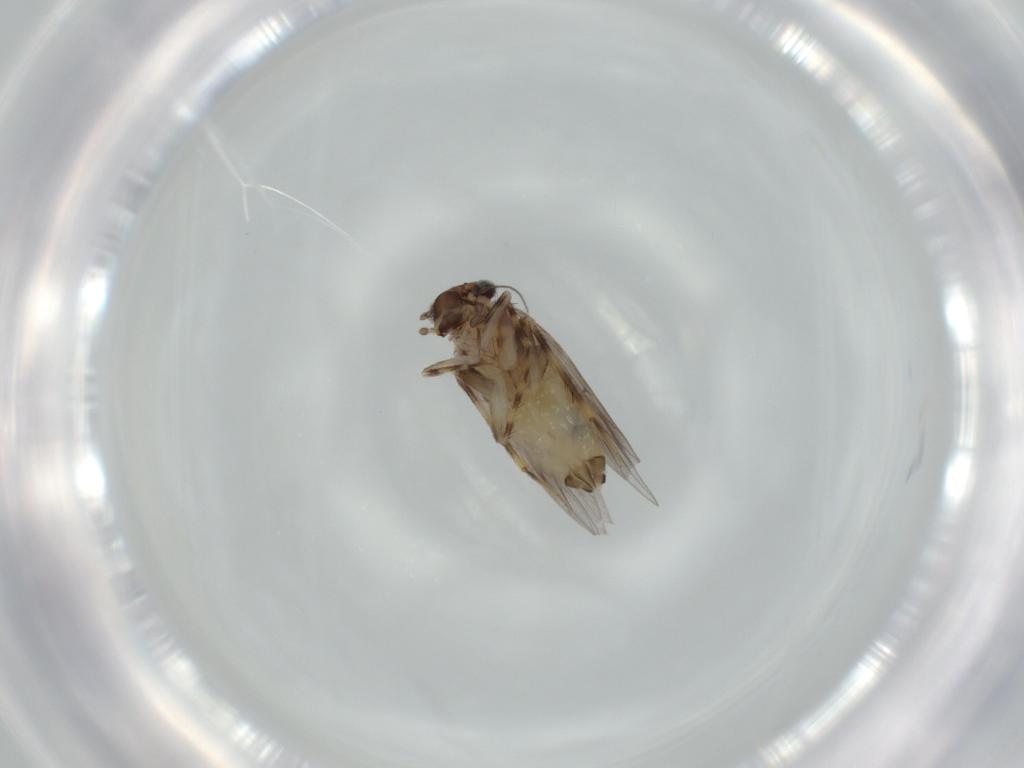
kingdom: Animalia
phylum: Arthropoda
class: Insecta
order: Psocodea
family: Lepidopsocidae
